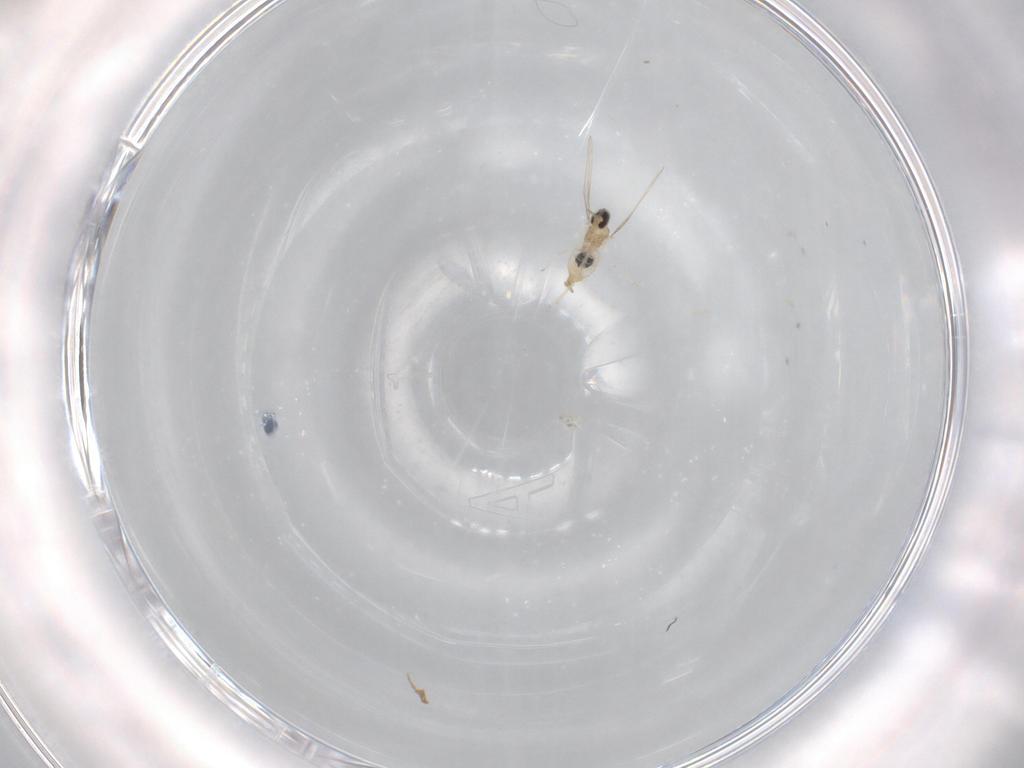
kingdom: Animalia
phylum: Arthropoda
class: Insecta
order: Diptera
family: Cecidomyiidae
